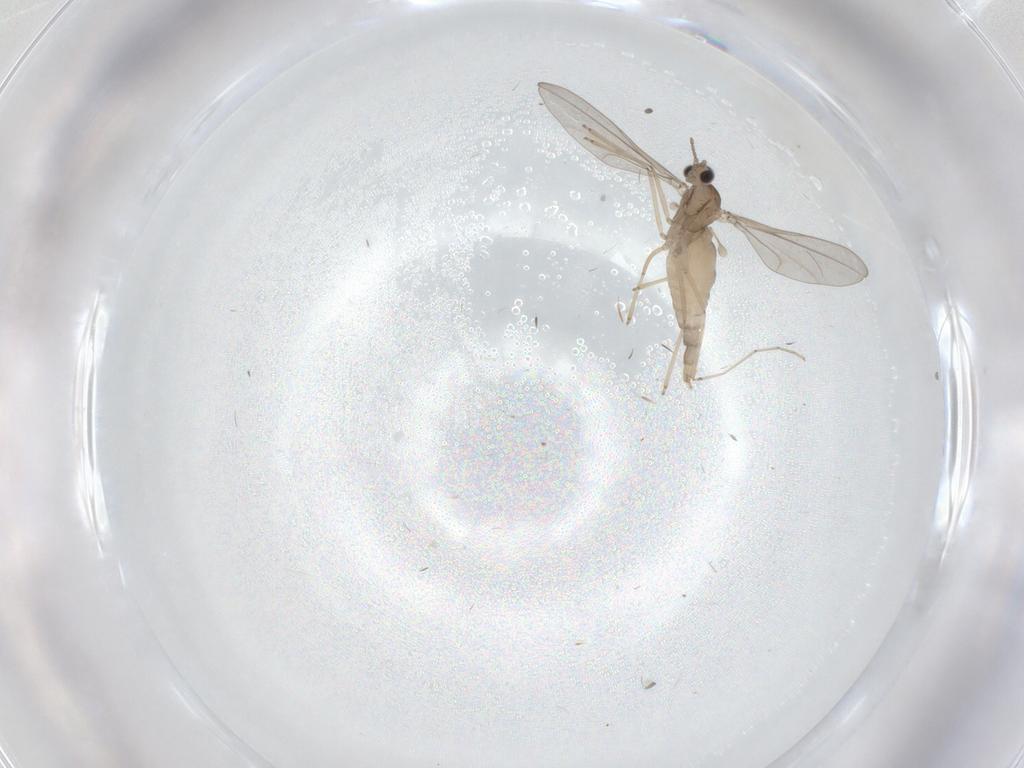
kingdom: Animalia
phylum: Arthropoda
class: Insecta
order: Diptera
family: Cecidomyiidae
